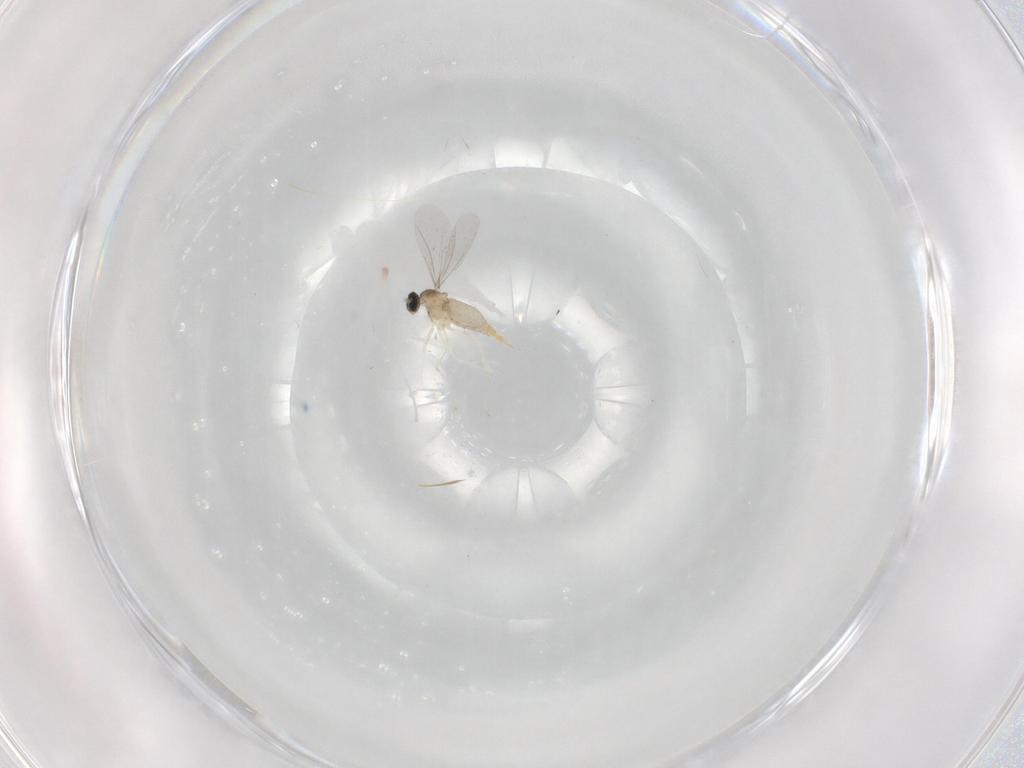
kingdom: Animalia
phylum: Arthropoda
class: Insecta
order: Diptera
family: Cecidomyiidae
